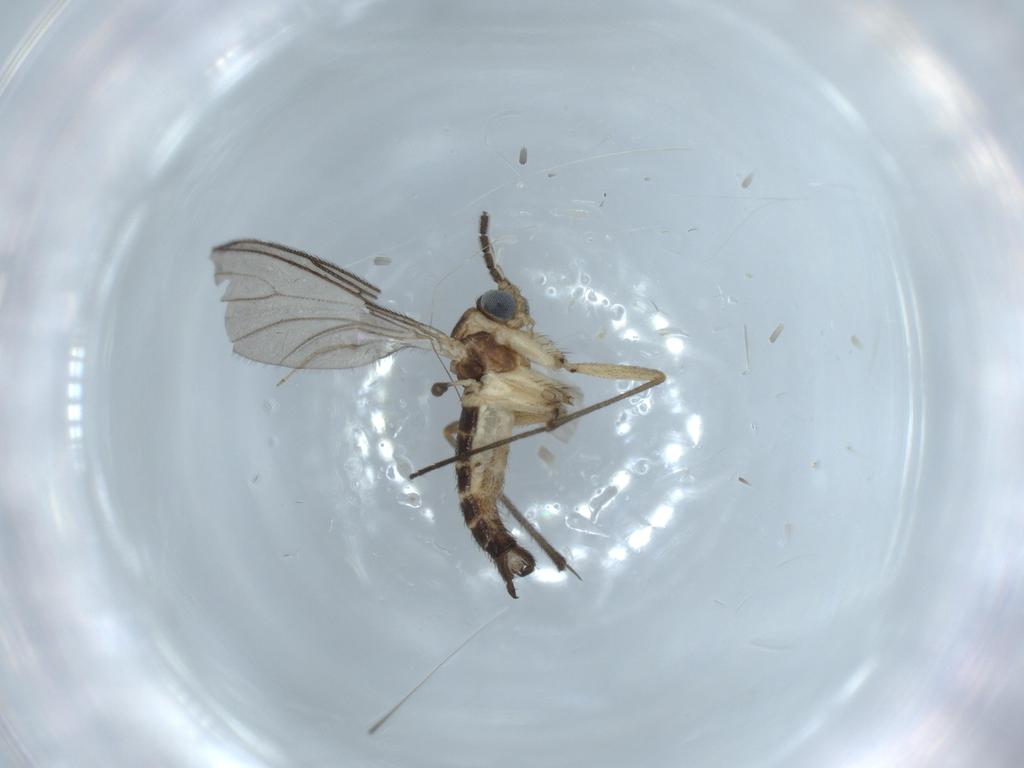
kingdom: Animalia
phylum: Arthropoda
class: Insecta
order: Diptera
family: Sciaridae
